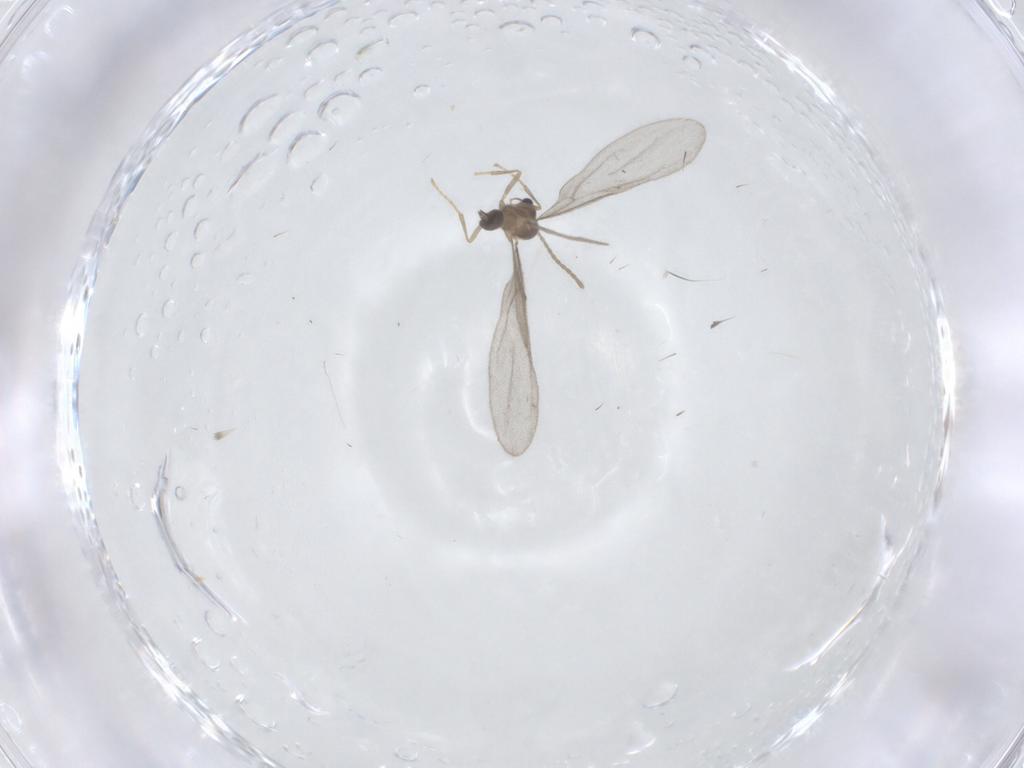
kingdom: Animalia
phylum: Arthropoda
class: Insecta
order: Hymenoptera
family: Formicidae
